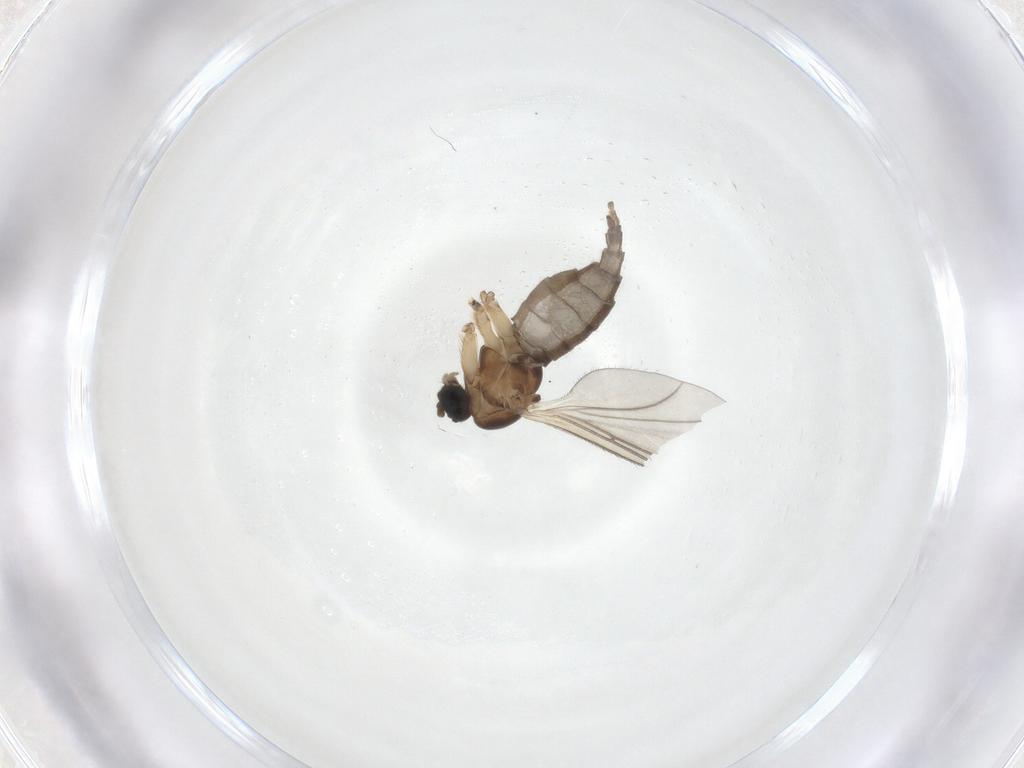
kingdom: Animalia
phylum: Arthropoda
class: Insecta
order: Diptera
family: Sciaridae
